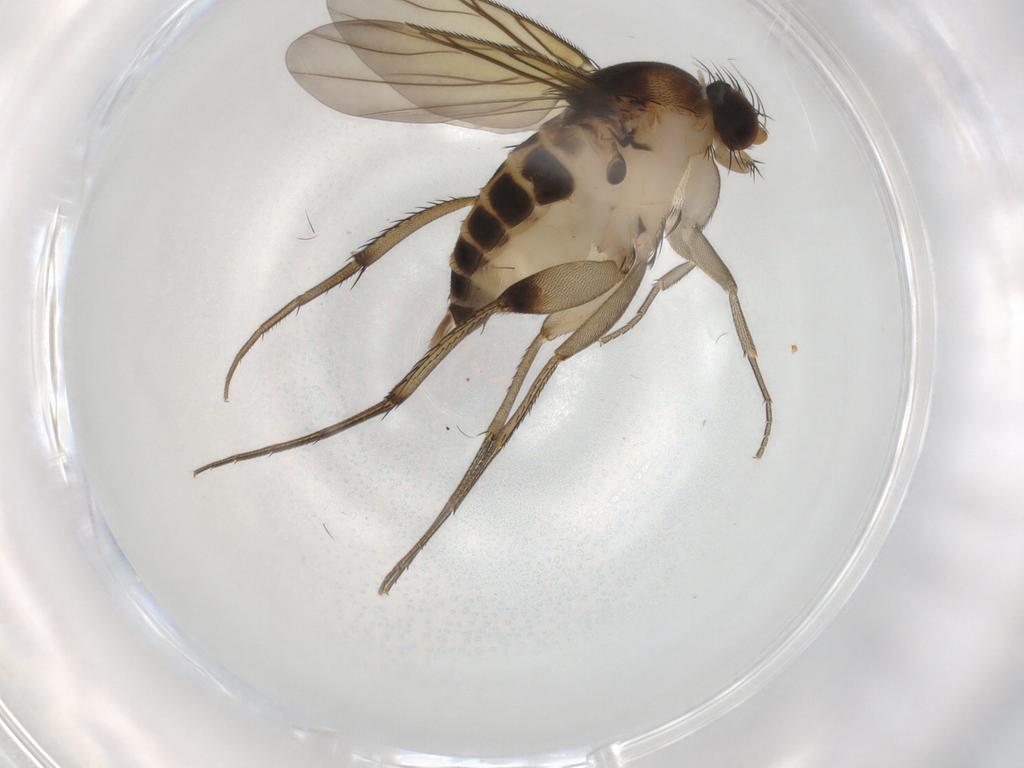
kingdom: Animalia
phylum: Arthropoda
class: Insecta
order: Diptera
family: Phoridae
